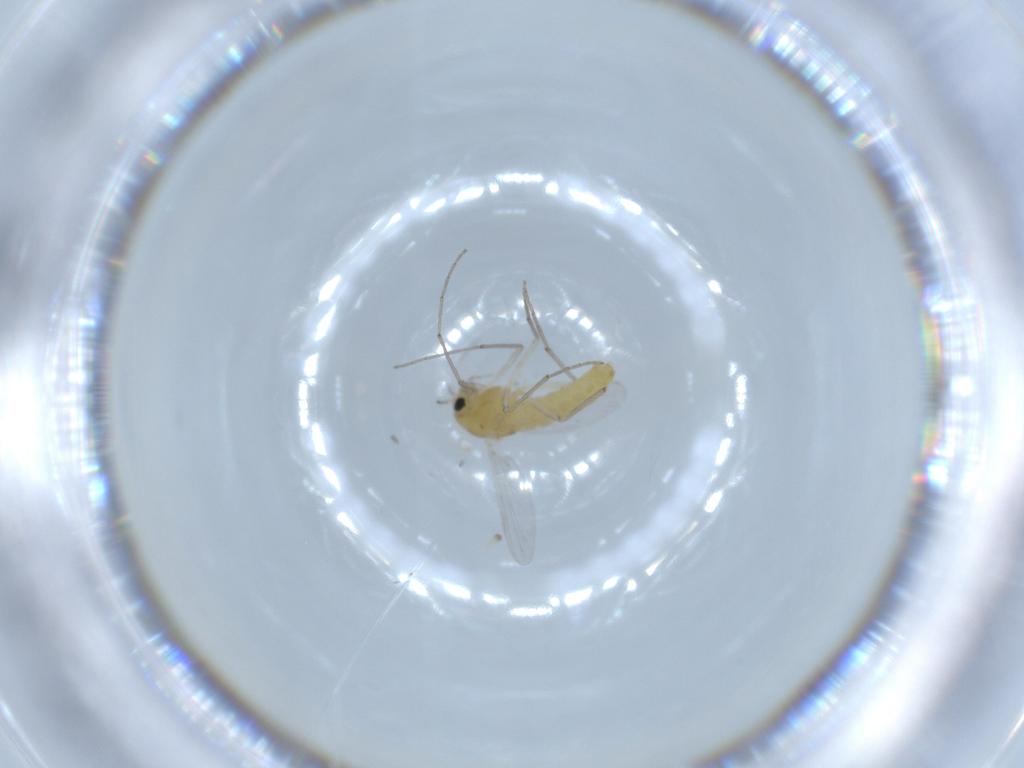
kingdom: Animalia
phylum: Arthropoda
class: Insecta
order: Diptera
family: Chironomidae
